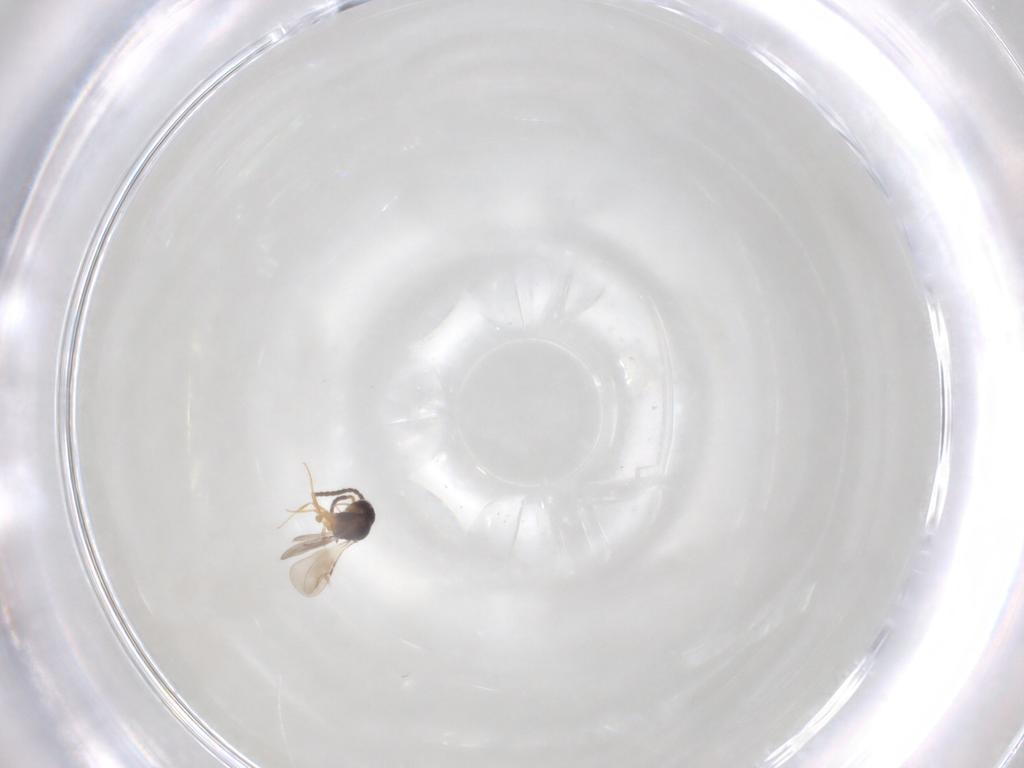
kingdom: Animalia
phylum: Arthropoda
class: Insecta
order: Hymenoptera
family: Ceraphronidae
